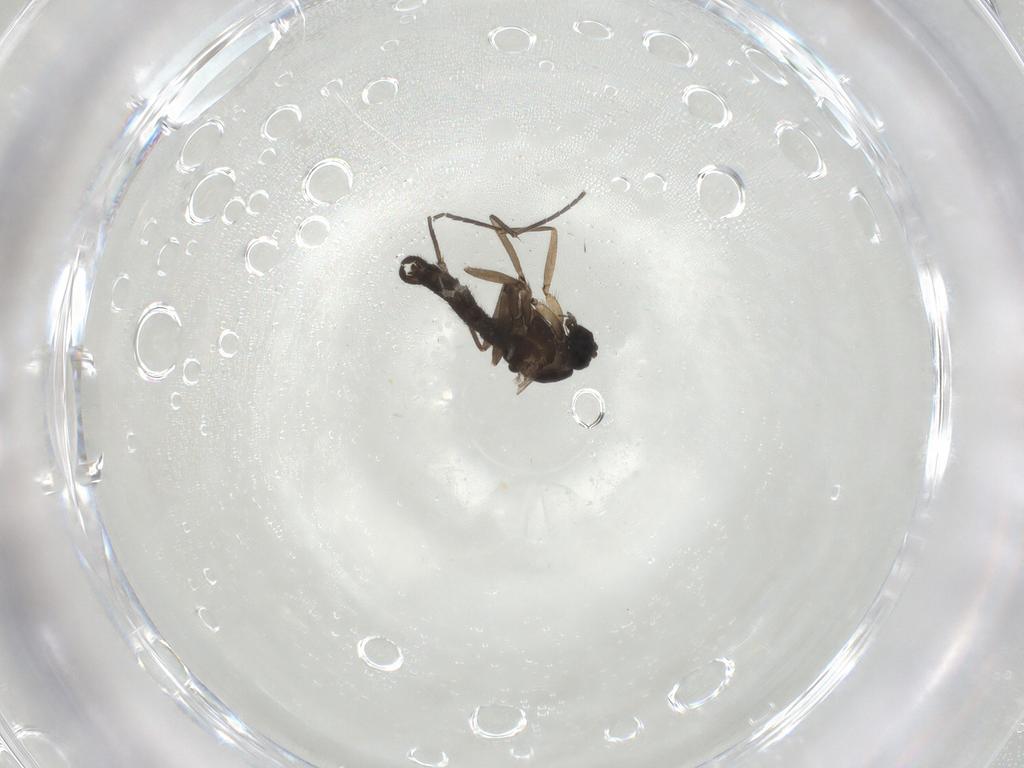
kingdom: Animalia
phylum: Arthropoda
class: Insecta
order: Diptera
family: Sciaridae
